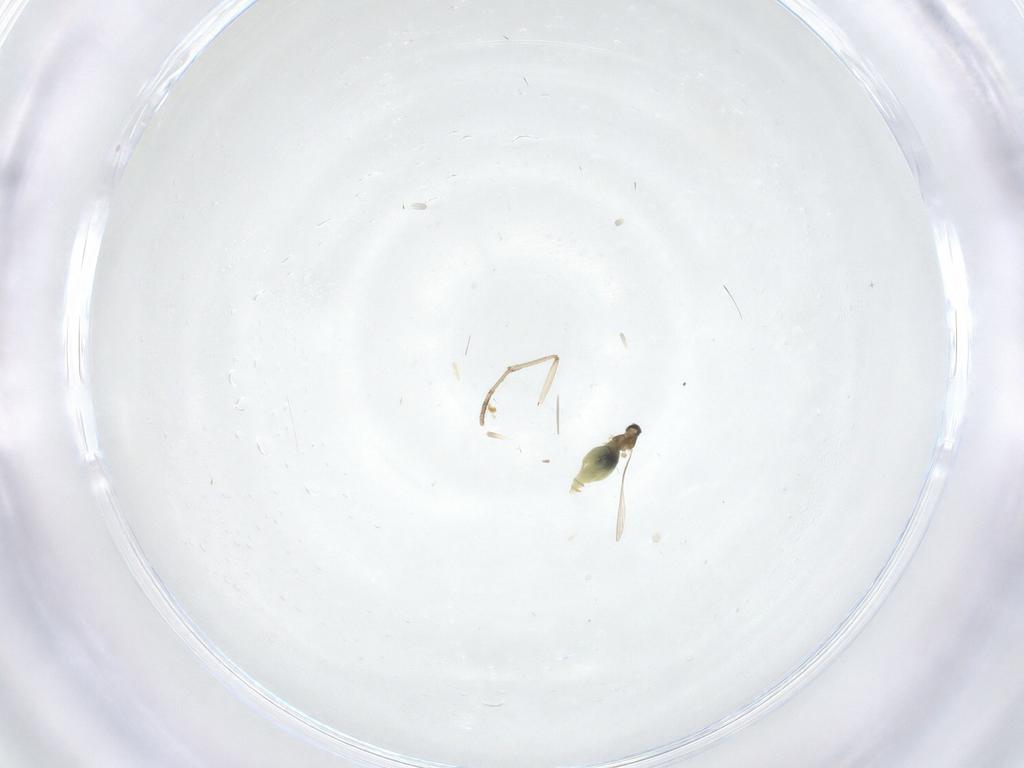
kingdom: Animalia
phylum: Arthropoda
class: Insecta
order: Diptera
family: Cecidomyiidae
